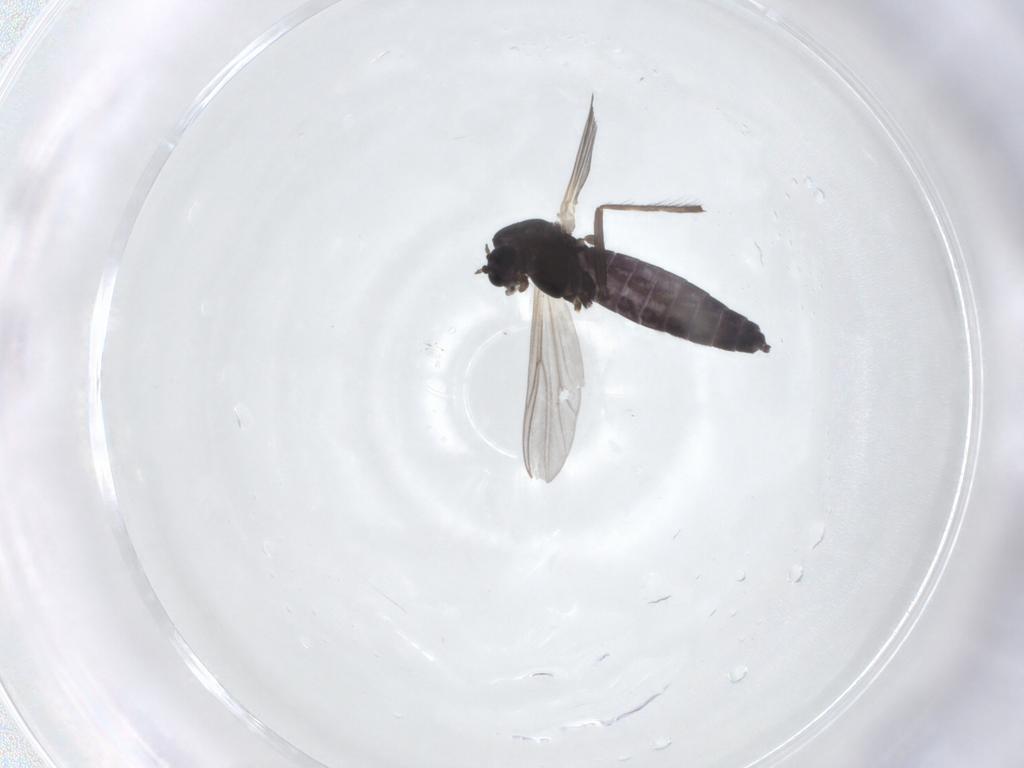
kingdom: Animalia
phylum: Arthropoda
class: Insecta
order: Diptera
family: Chironomidae
